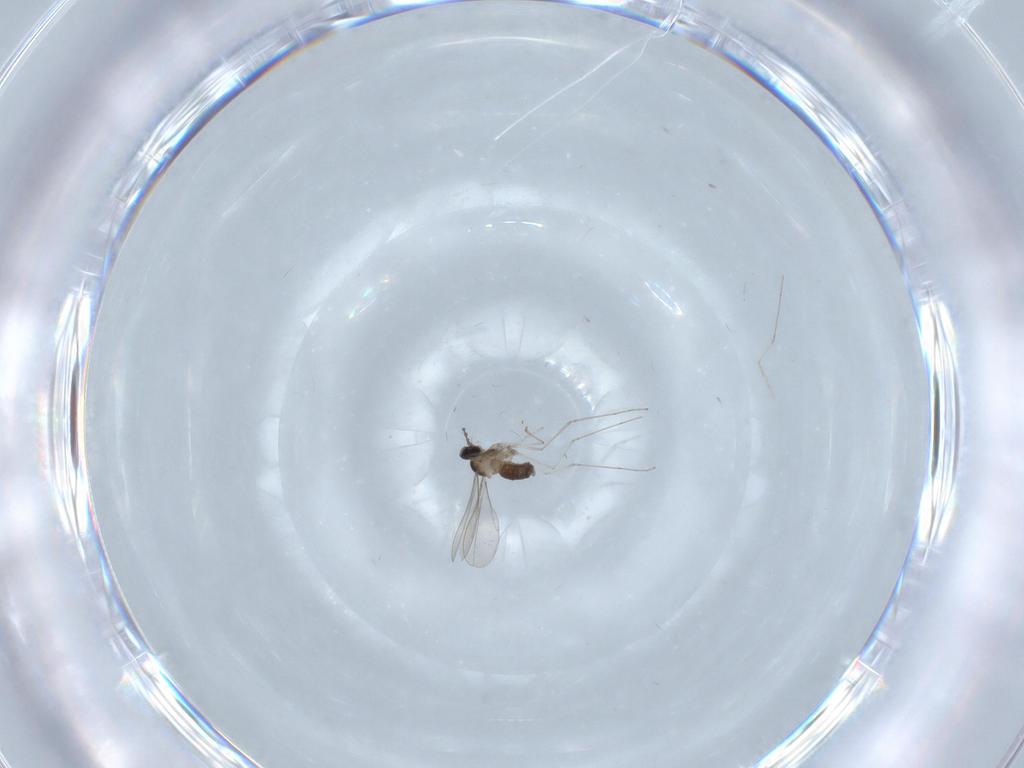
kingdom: Animalia
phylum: Arthropoda
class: Insecta
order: Diptera
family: Cecidomyiidae
